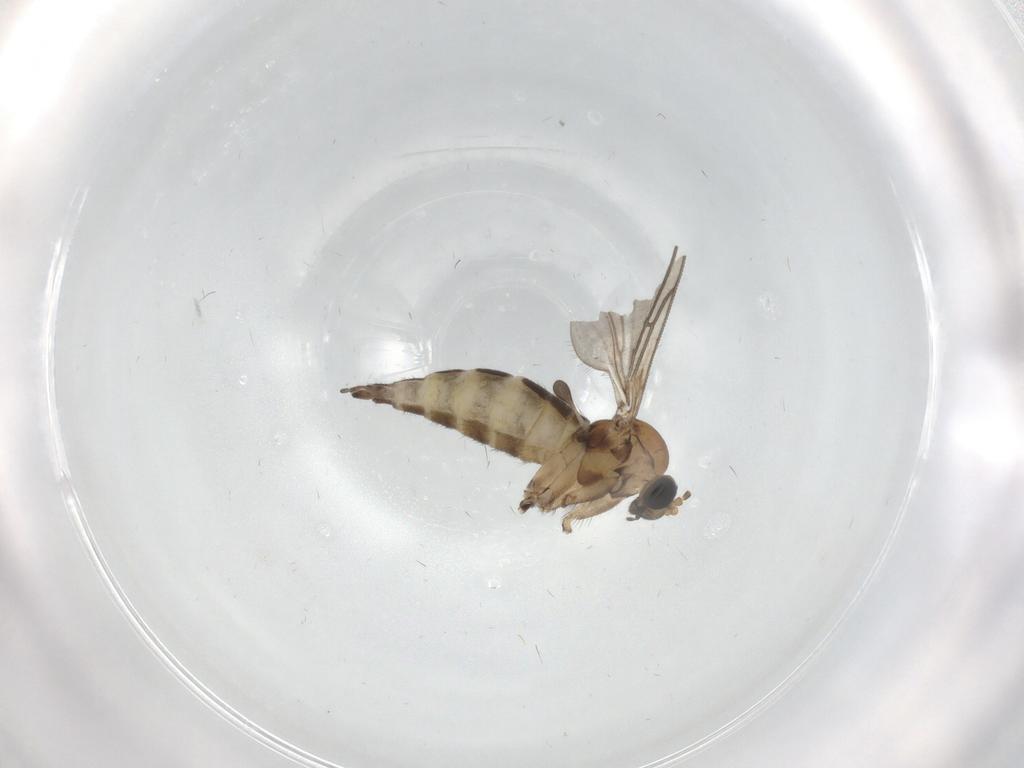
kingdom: Animalia
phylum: Arthropoda
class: Insecta
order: Diptera
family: Sciaridae
